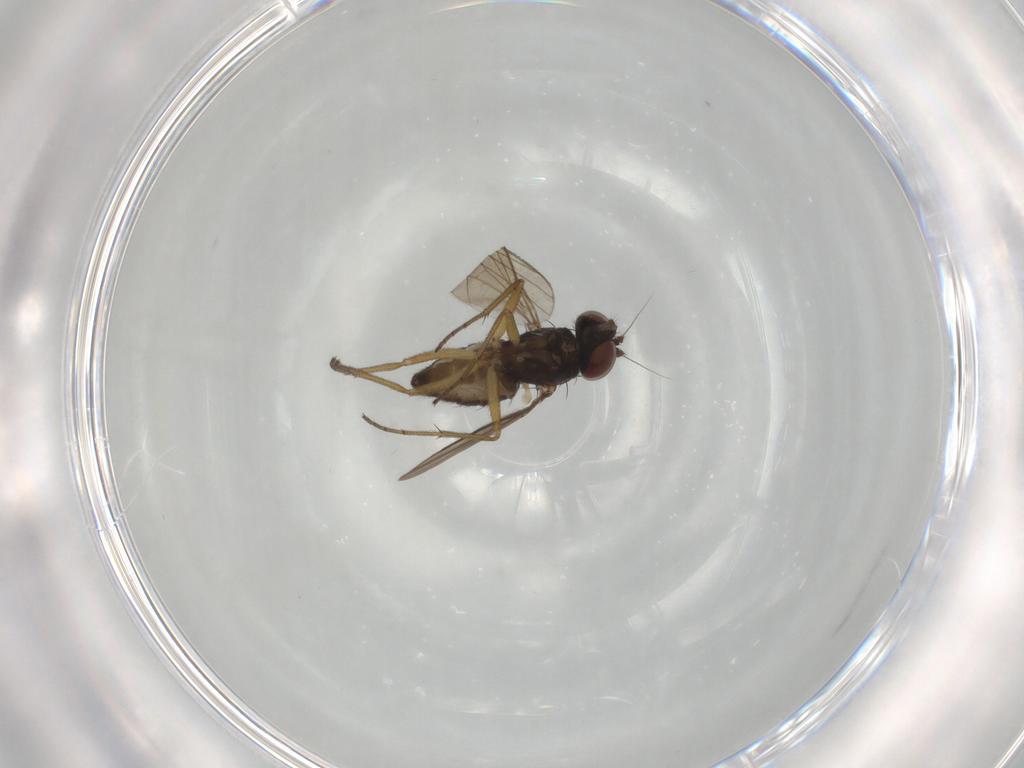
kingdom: Animalia
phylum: Arthropoda
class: Insecta
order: Diptera
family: Dolichopodidae
